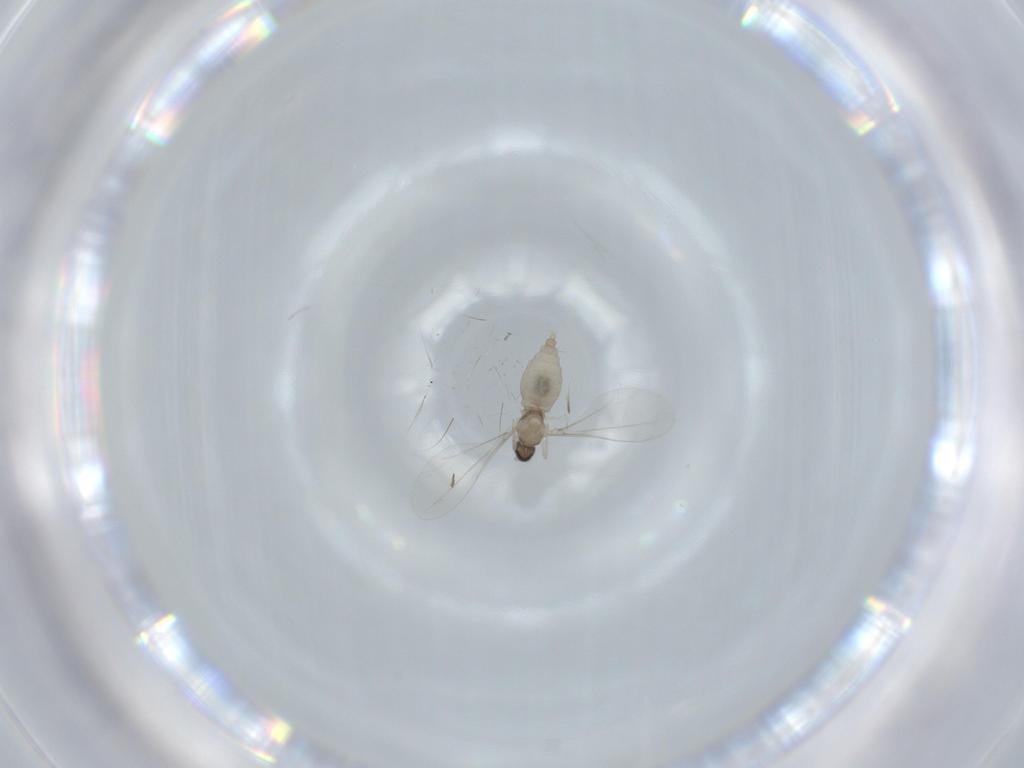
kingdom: Animalia
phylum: Arthropoda
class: Insecta
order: Diptera
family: Cecidomyiidae
